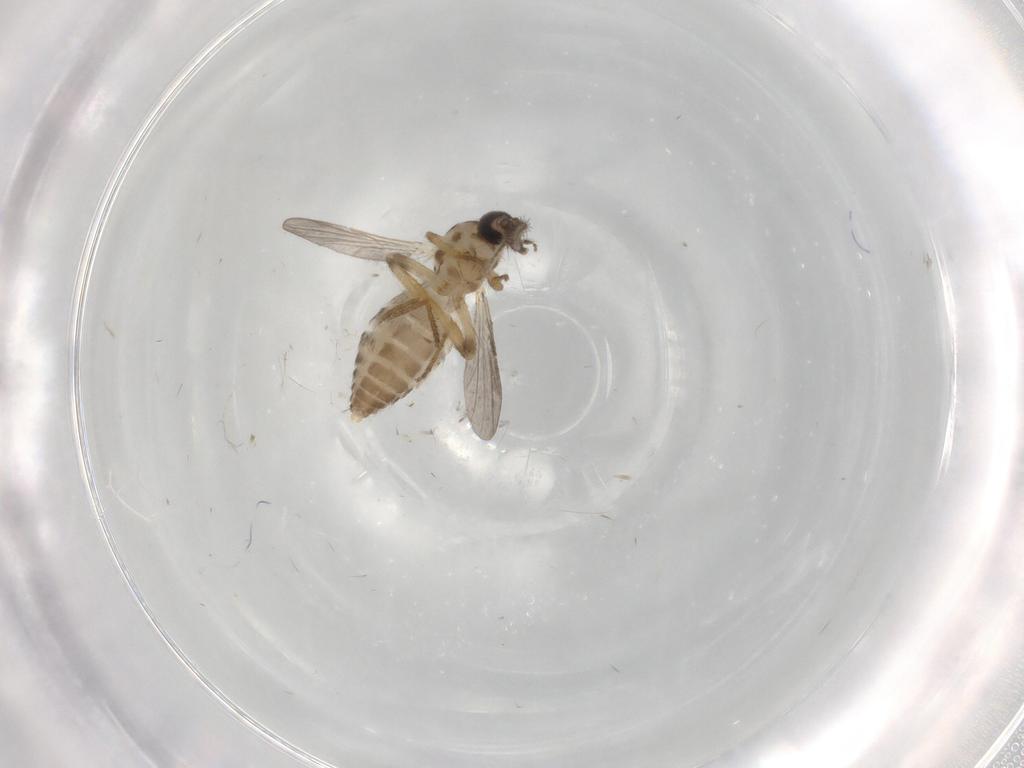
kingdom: Animalia
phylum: Arthropoda
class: Insecta
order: Diptera
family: Ceratopogonidae
